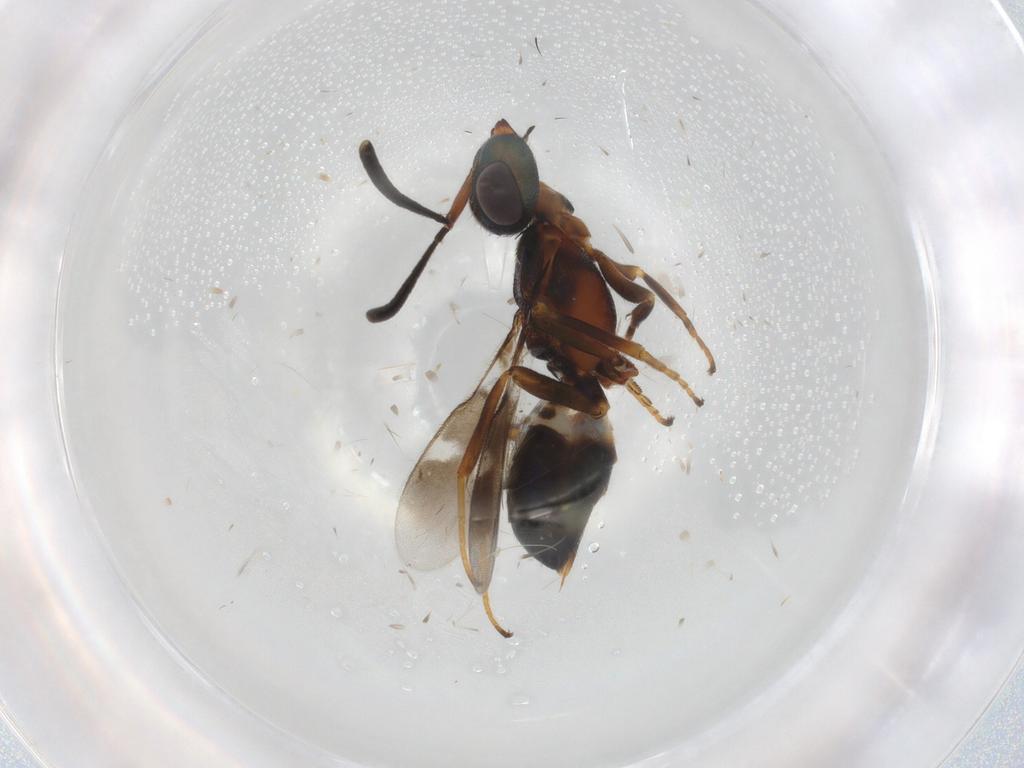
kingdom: Animalia
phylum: Arthropoda
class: Insecta
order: Hymenoptera
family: Eupelmidae
